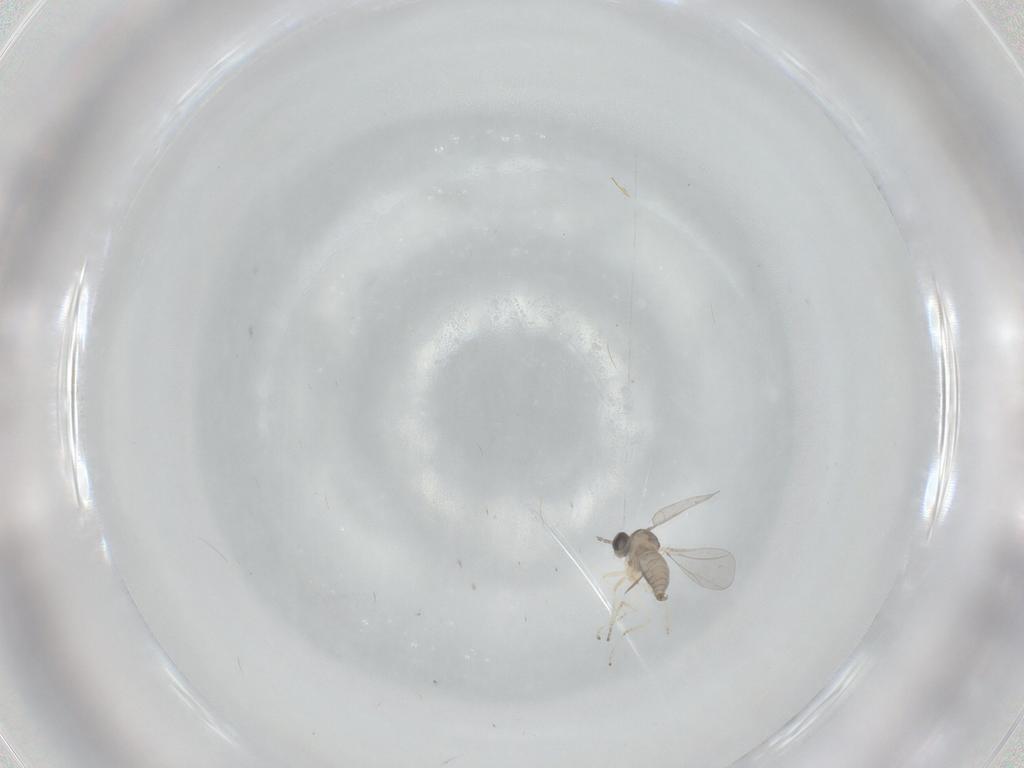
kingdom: Animalia
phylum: Arthropoda
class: Insecta
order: Diptera
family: Cecidomyiidae
